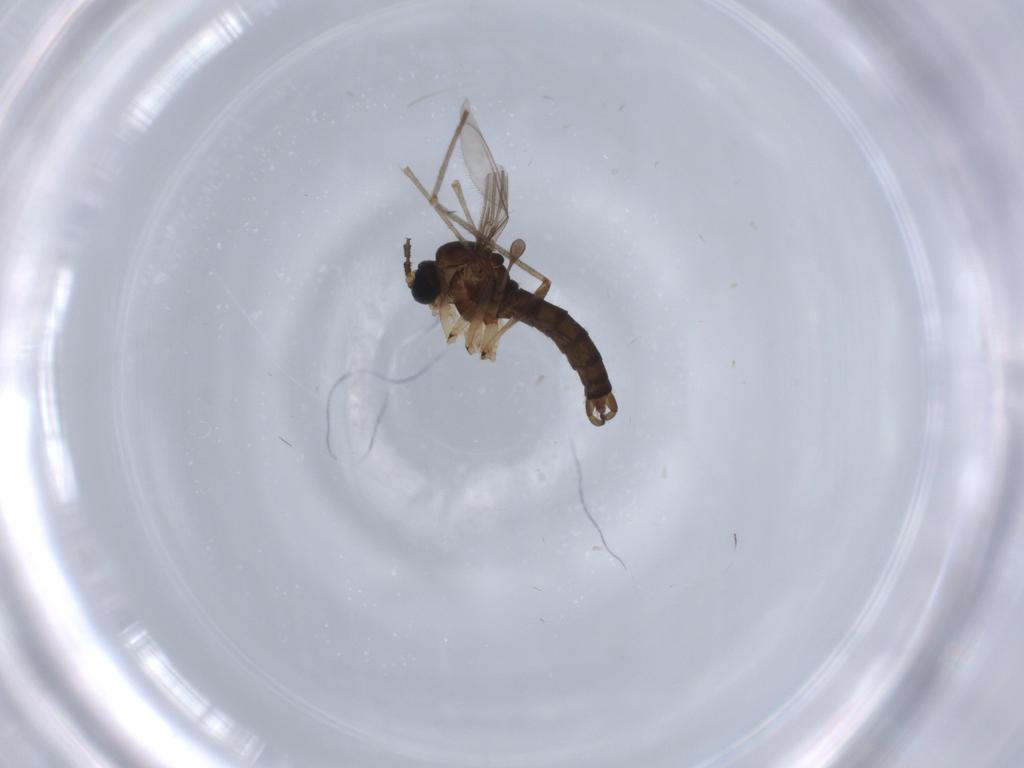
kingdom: Animalia
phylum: Arthropoda
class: Insecta
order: Diptera
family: Sciaridae
